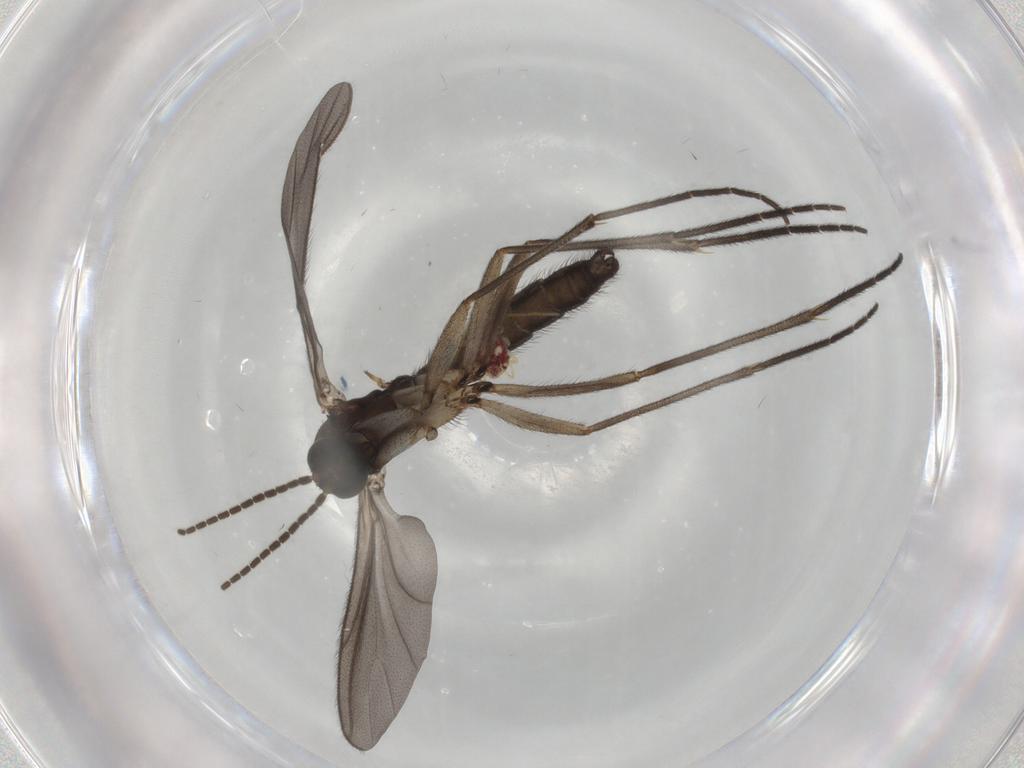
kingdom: Animalia
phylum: Arthropoda
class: Insecta
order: Diptera
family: Sciaridae
